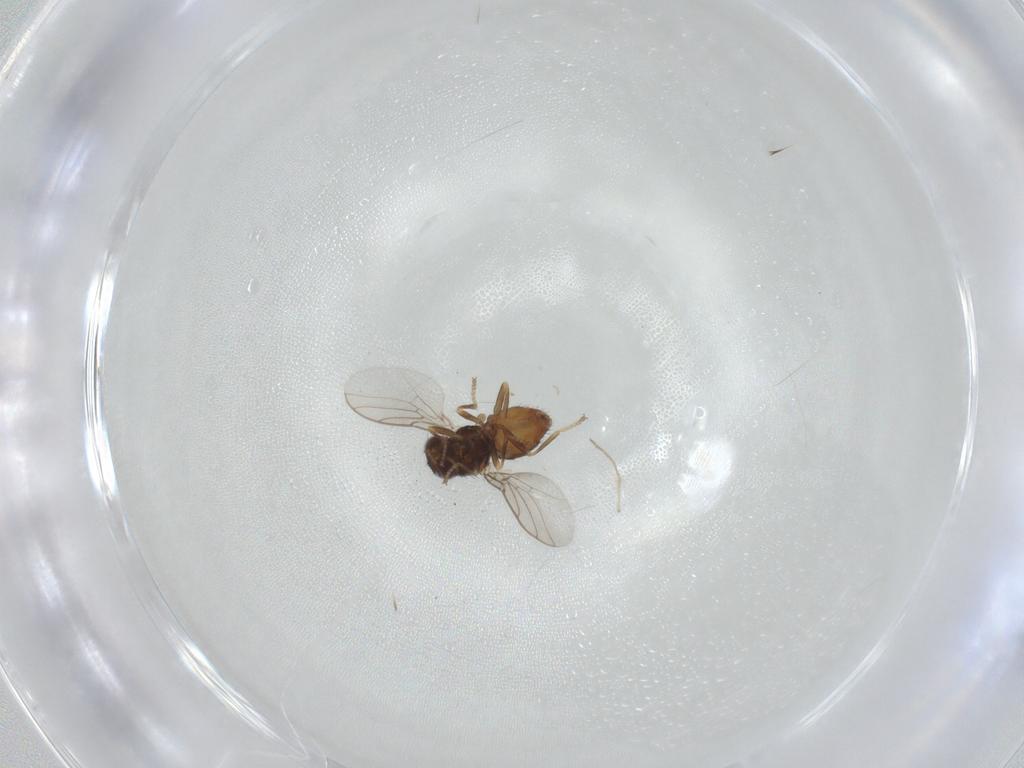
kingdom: Animalia
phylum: Arthropoda
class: Insecta
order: Diptera
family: Chloropidae
